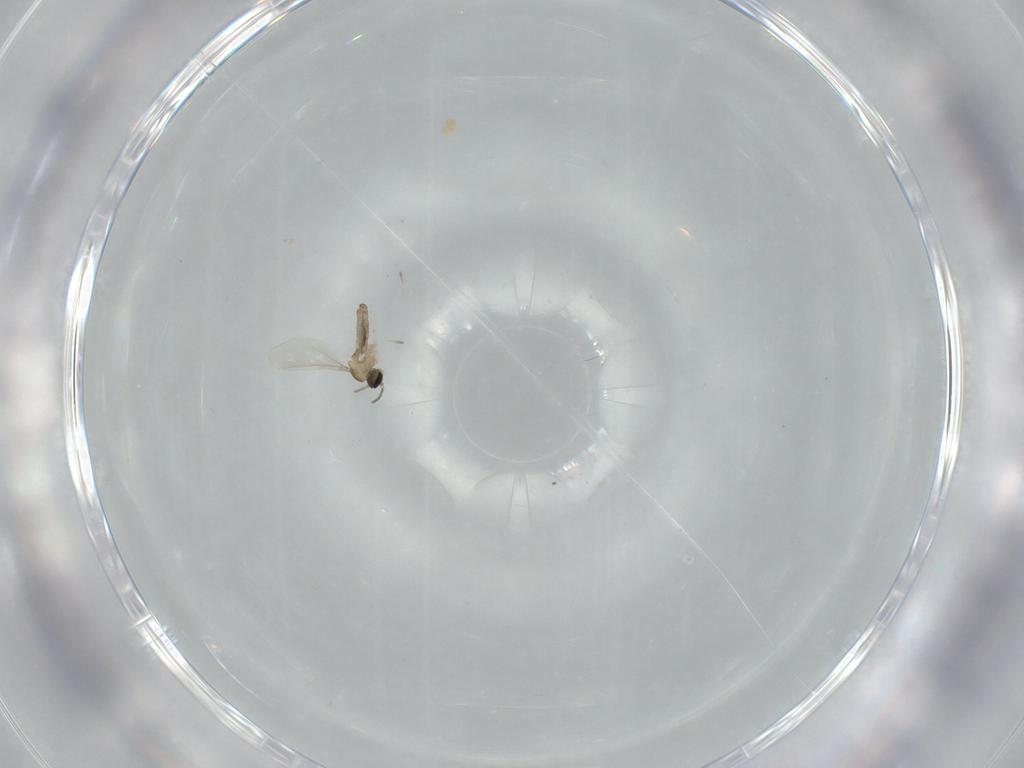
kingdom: Animalia
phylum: Arthropoda
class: Insecta
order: Diptera
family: Cecidomyiidae
